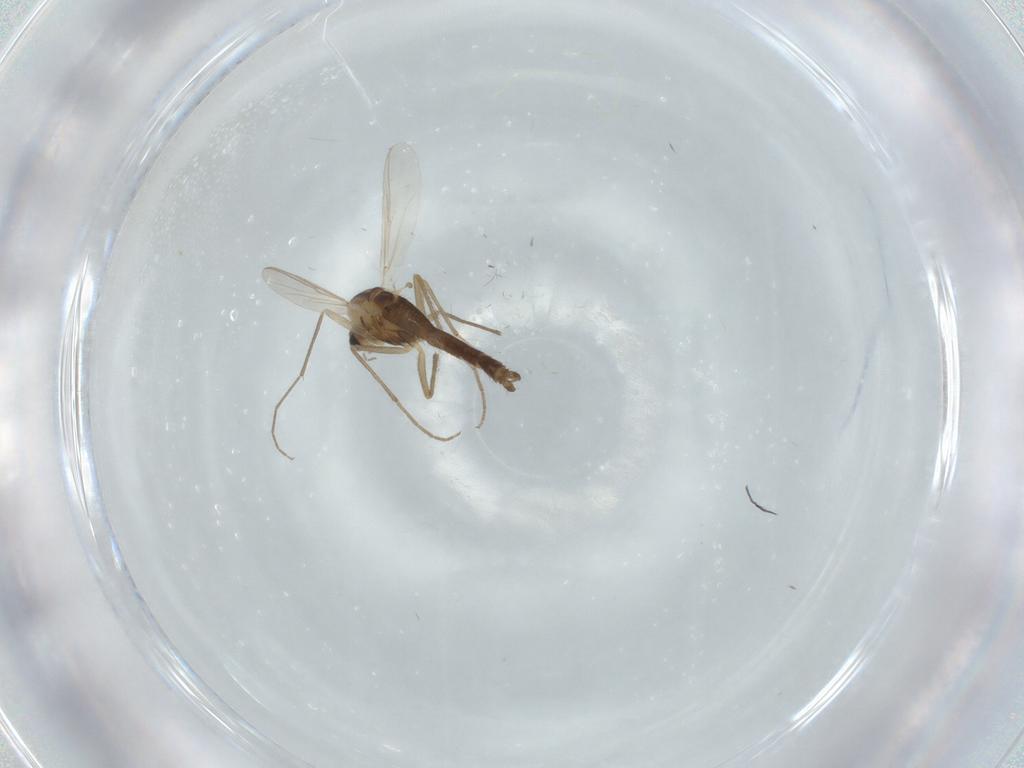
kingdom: Animalia
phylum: Arthropoda
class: Insecta
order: Diptera
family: Chironomidae
